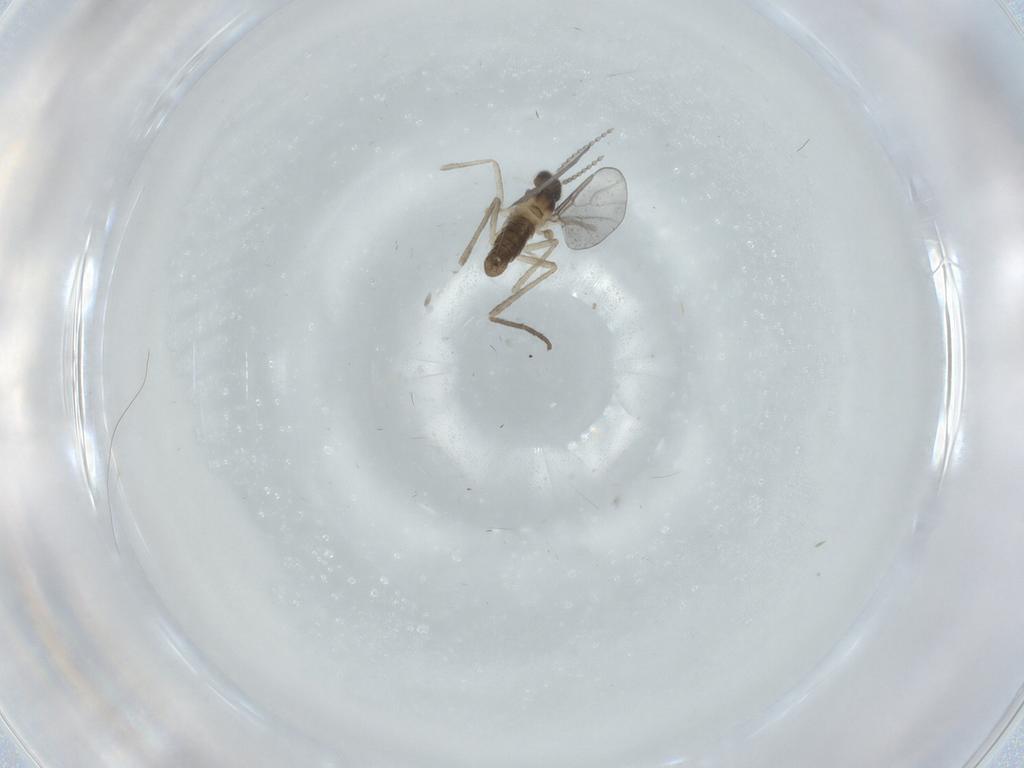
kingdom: Animalia
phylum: Arthropoda
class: Insecta
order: Diptera
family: Cecidomyiidae
